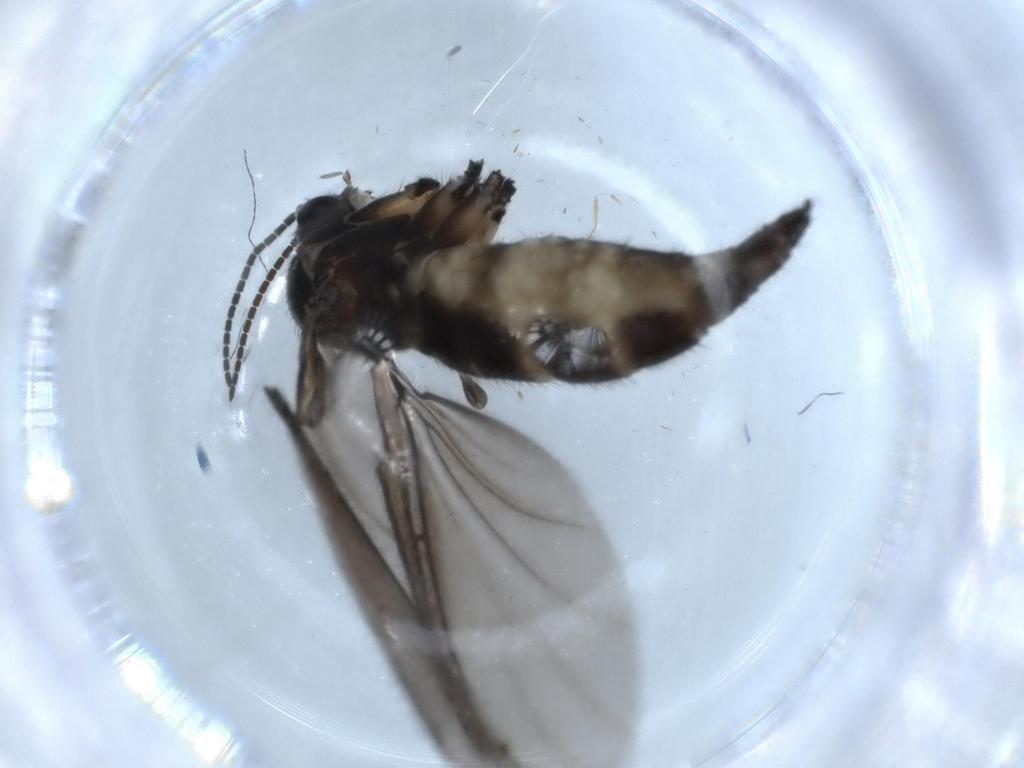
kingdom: Animalia
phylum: Arthropoda
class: Insecta
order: Diptera
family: Sciaridae
